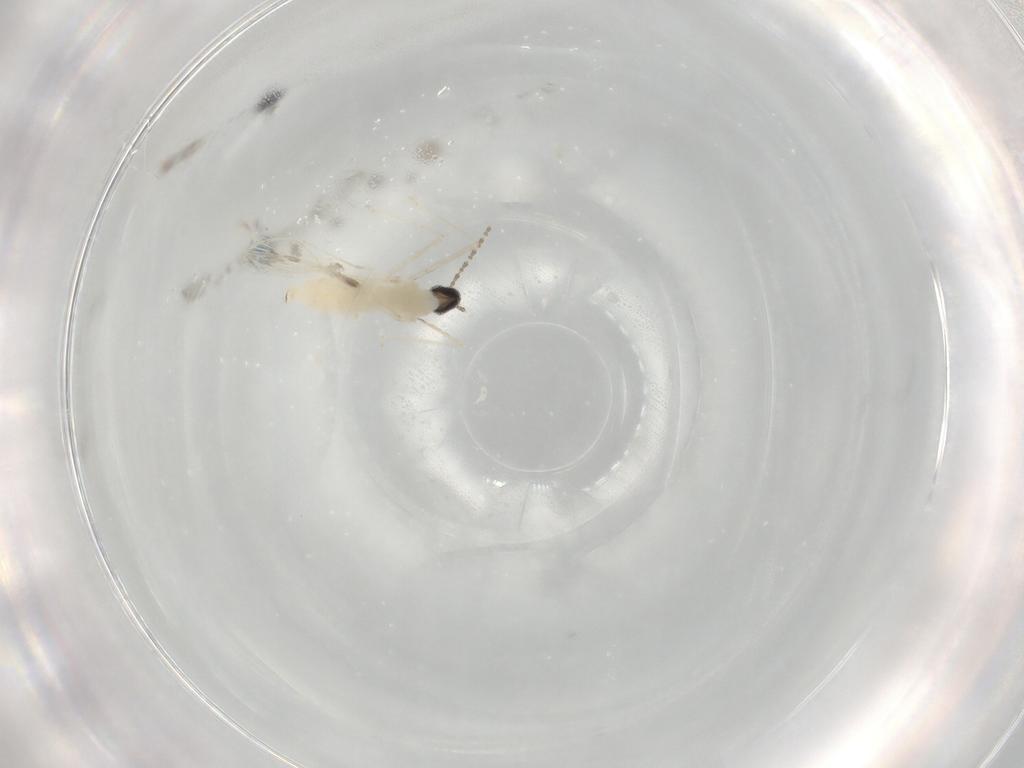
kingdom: Animalia
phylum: Arthropoda
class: Insecta
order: Diptera
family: Cecidomyiidae
